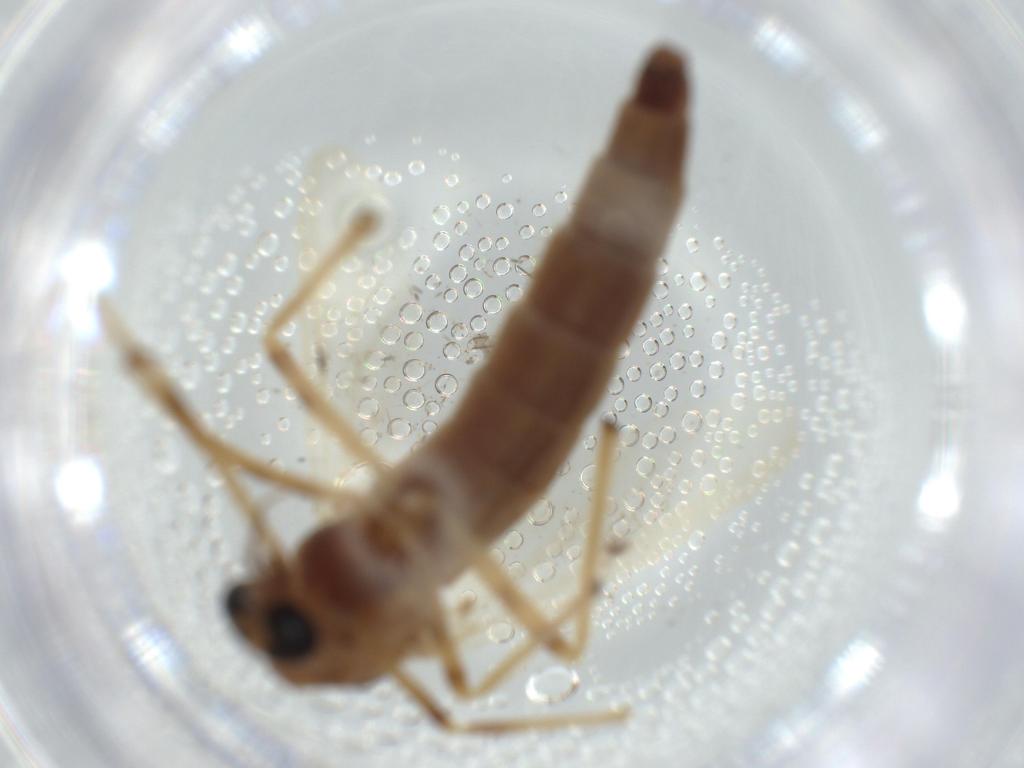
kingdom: Animalia
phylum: Arthropoda
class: Insecta
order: Diptera
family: Chironomidae
